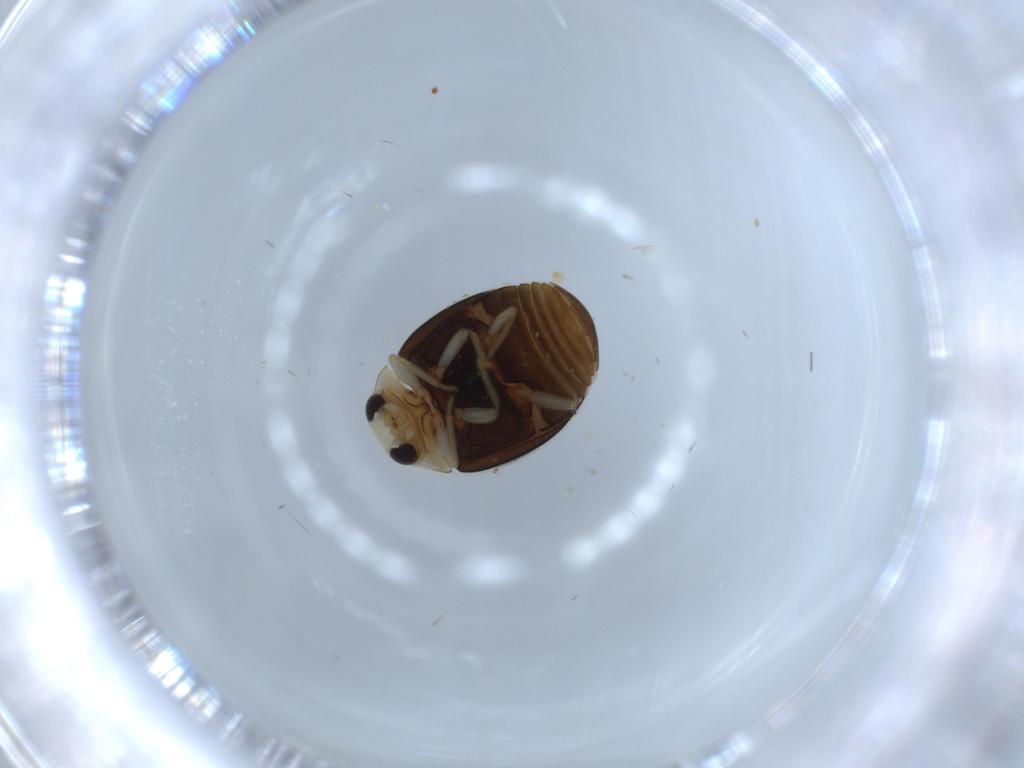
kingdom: Animalia
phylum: Arthropoda
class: Insecta
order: Coleoptera
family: Coccinellidae
